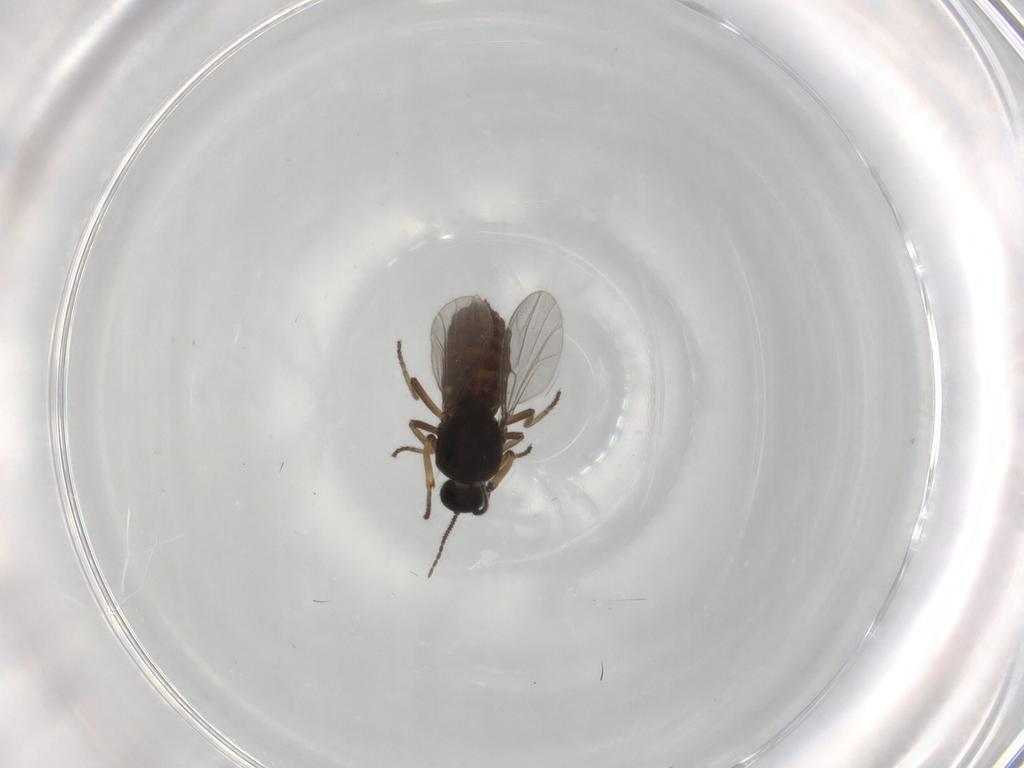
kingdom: Animalia
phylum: Arthropoda
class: Insecta
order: Diptera
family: Ceratopogonidae
